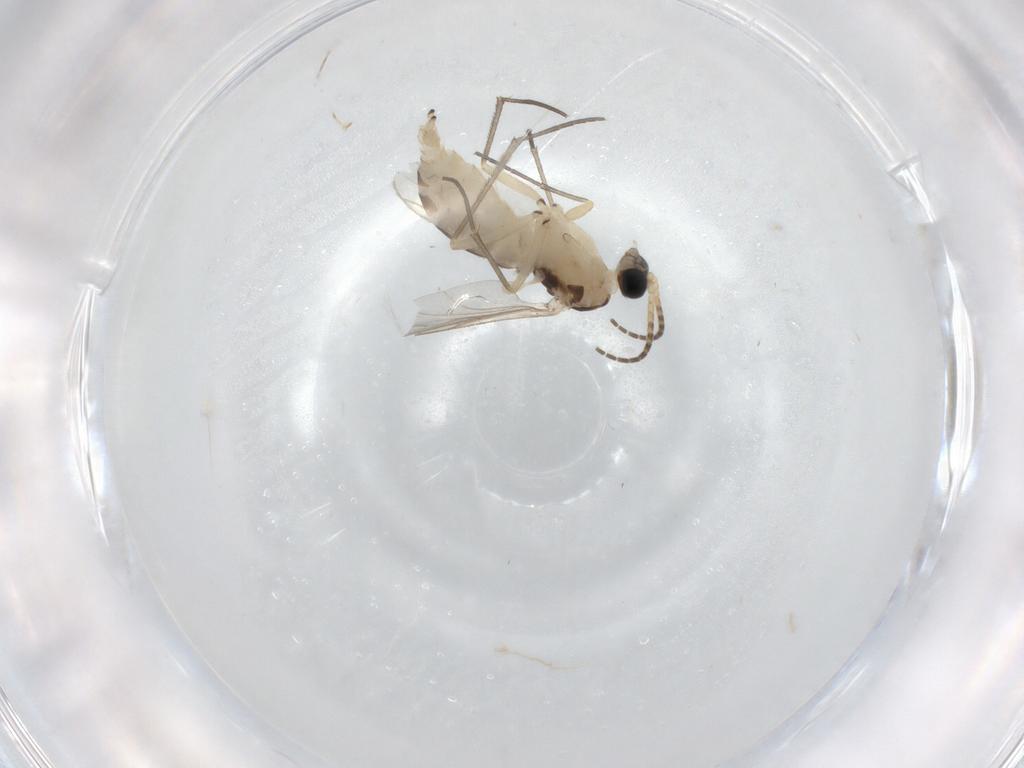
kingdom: Animalia
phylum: Arthropoda
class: Insecta
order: Diptera
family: Sciaridae
